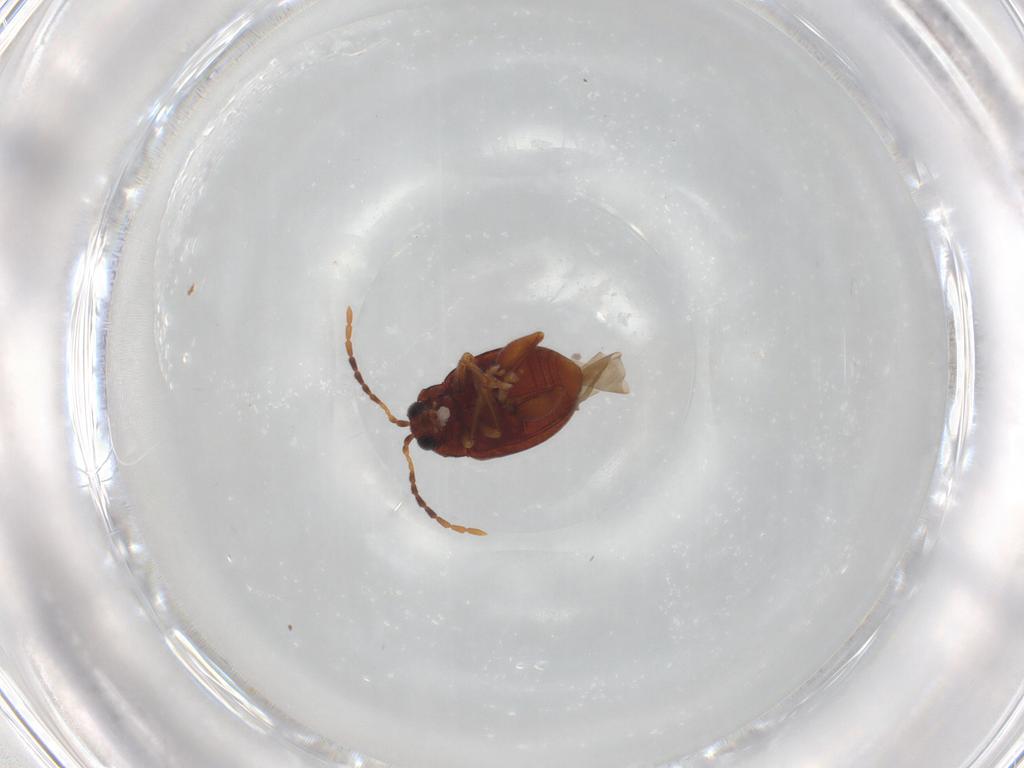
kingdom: Animalia
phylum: Arthropoda
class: Insecta
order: Coleoptera
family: Chrysomelidae
